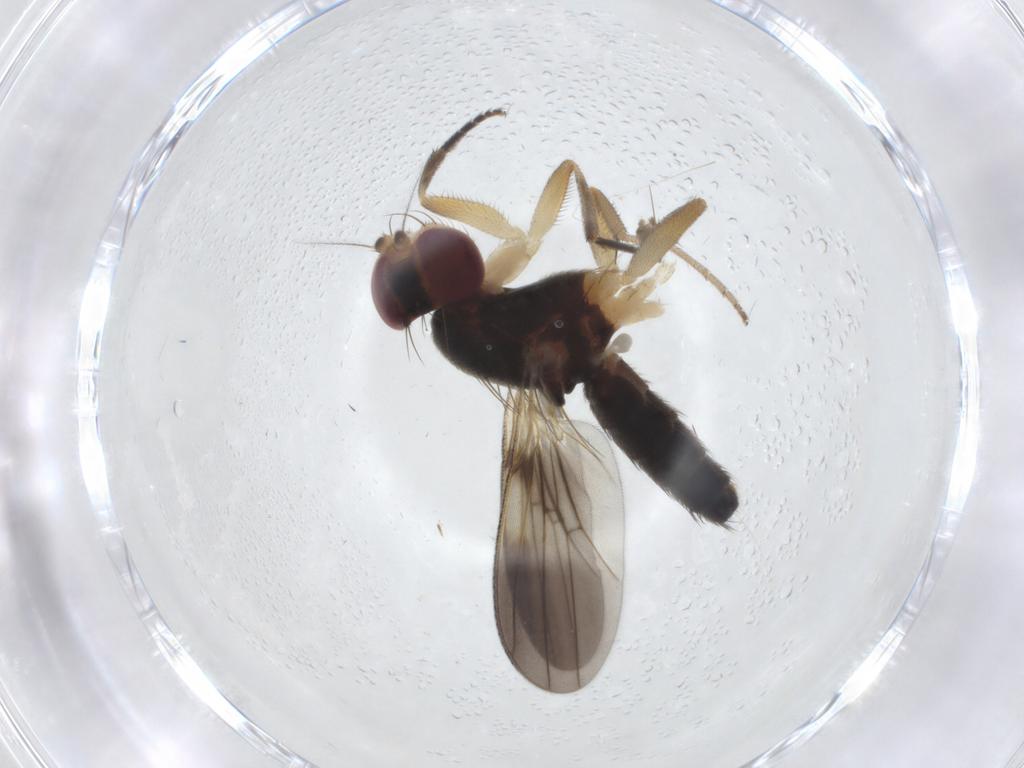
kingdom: Animalia
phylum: Arthropoda
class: Insecta
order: Diptera
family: Clusiidae
